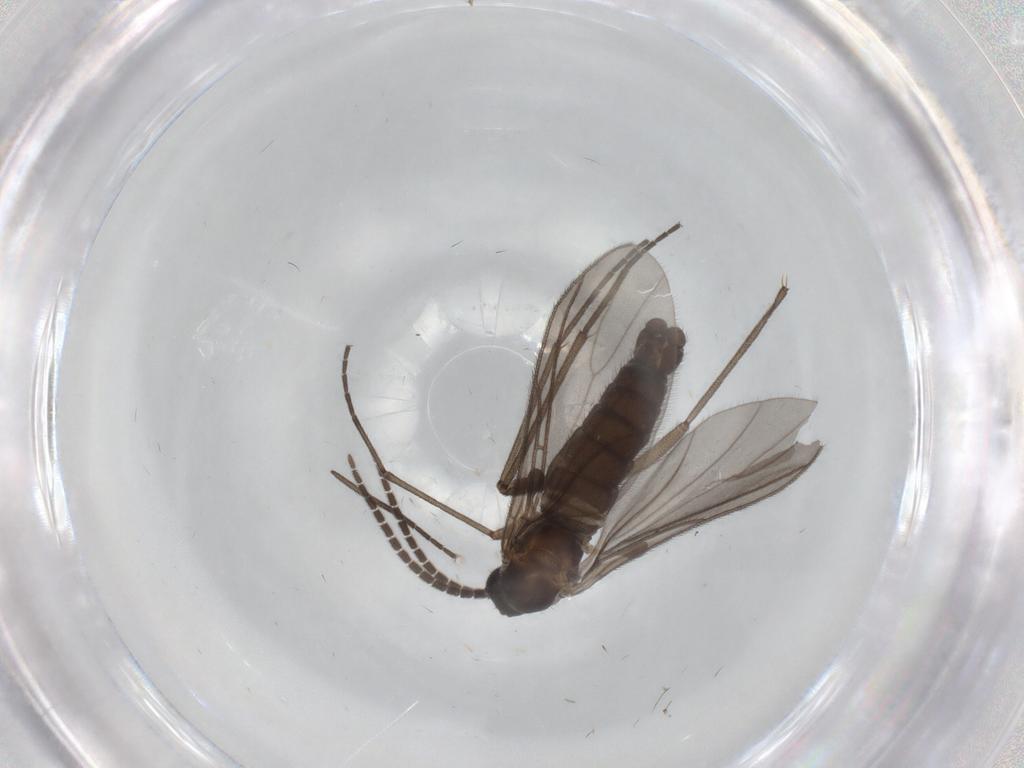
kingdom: Animalia
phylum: Arthropoda
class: Insecta
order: Diptera
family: Sciaridae
